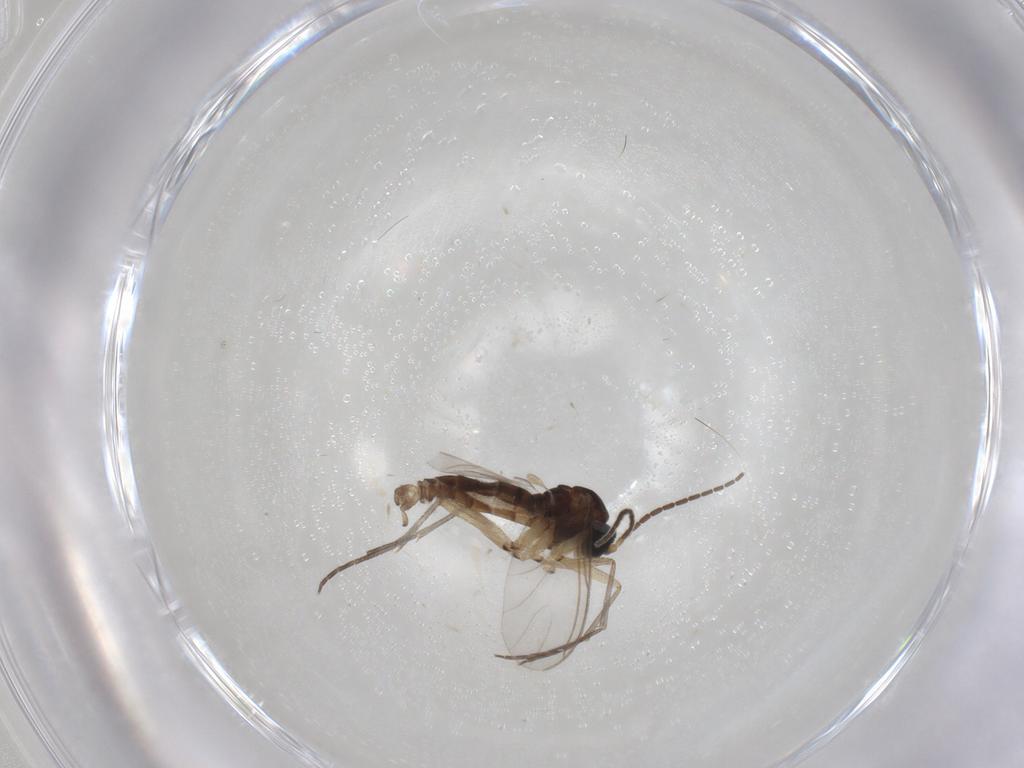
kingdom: Animalia
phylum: Arthropoda
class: Insecta
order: Diptera
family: Sciaridae
